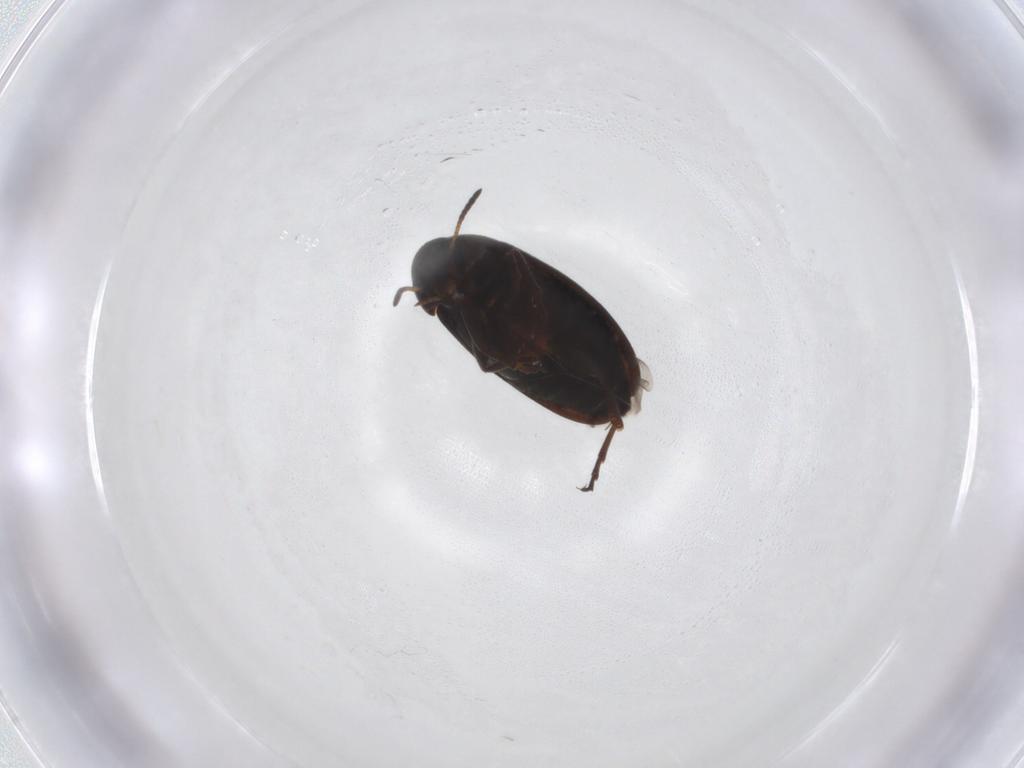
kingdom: Animalia
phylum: Arthropoda
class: Insecta
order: Coleoptera
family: Scraptiidae
